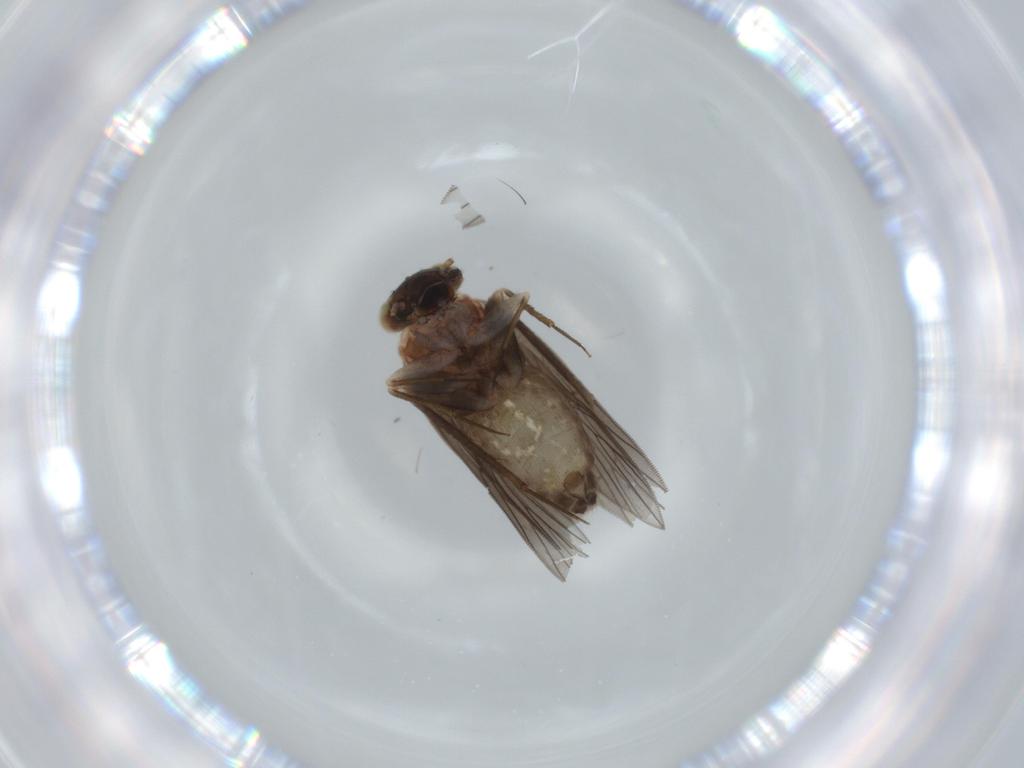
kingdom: Animalia
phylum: Arthropoda
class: Insecta
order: Psocodea
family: Lepidopsocidae
